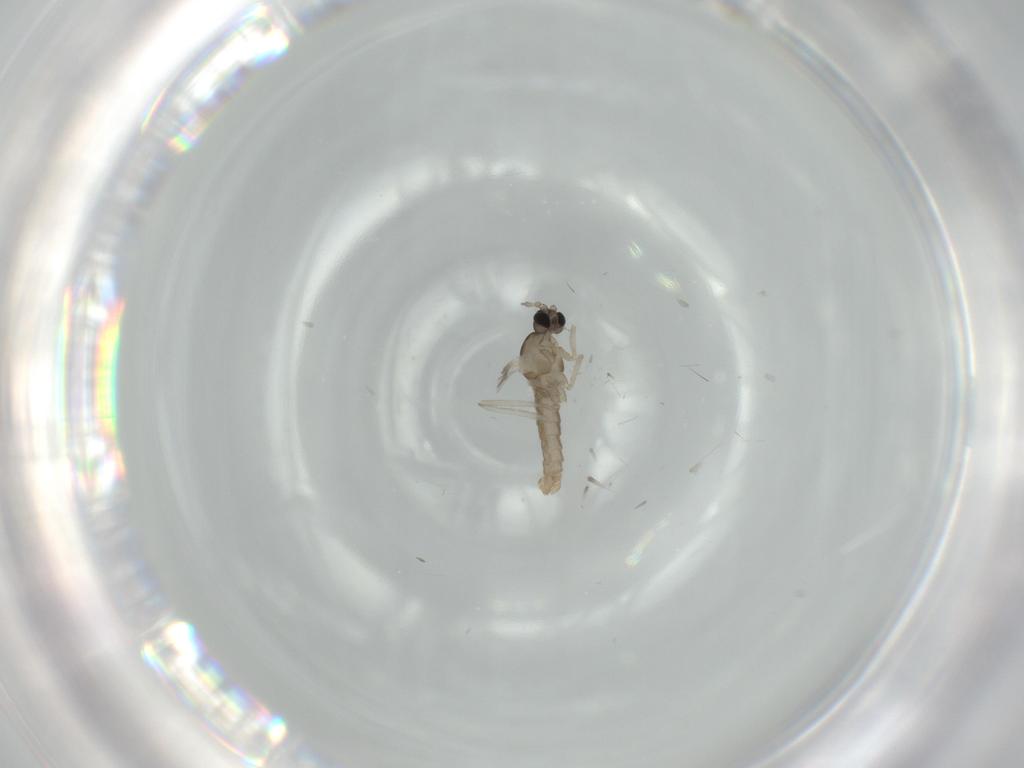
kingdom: Animalia
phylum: Arthropoda
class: Insecta
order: Diptera
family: Cecidomyiidae
